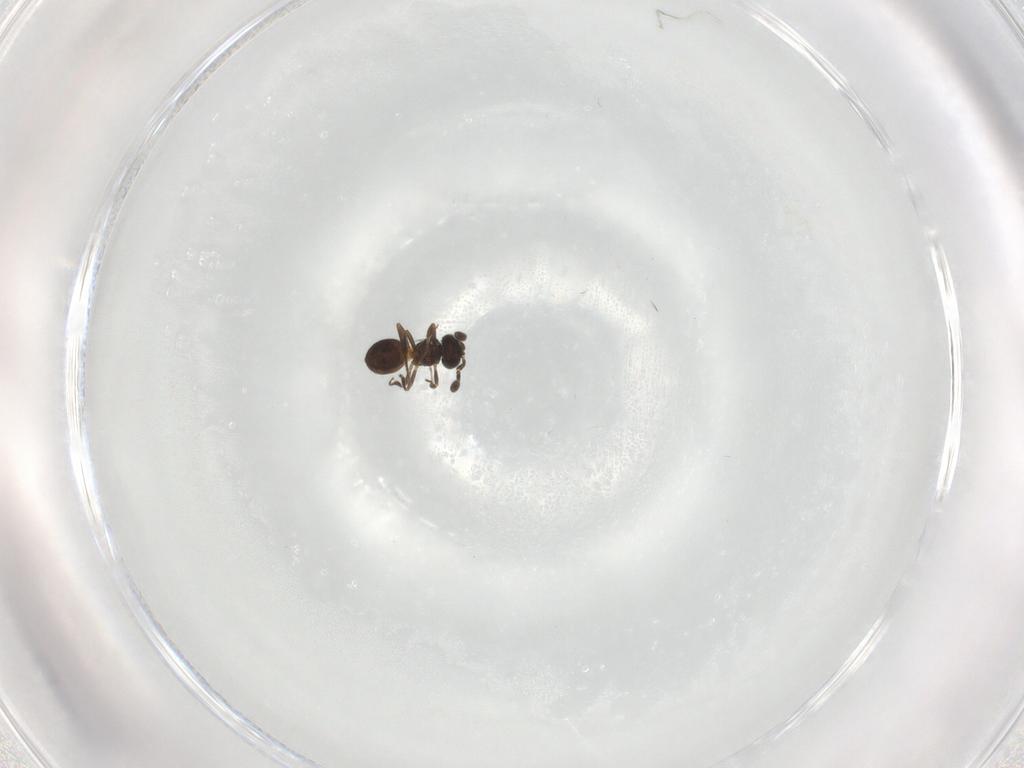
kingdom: Animalia
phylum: Arthropoda
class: Insecta
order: Hymenoptera
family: Scelionidae
